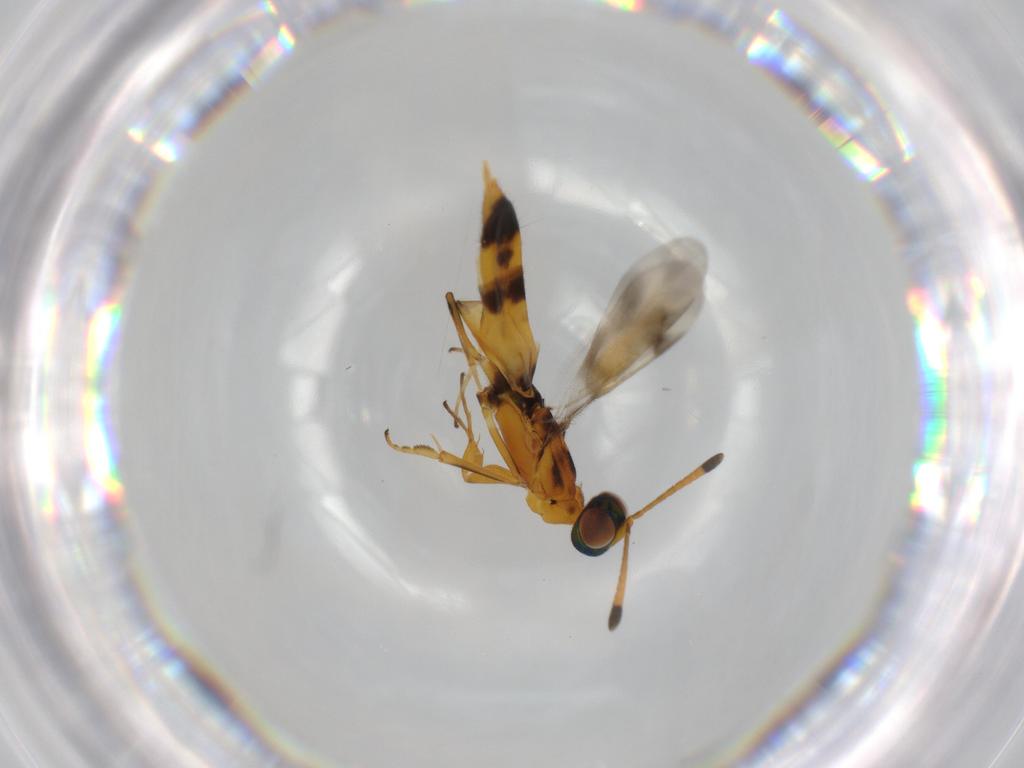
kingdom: Animalia
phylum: Arthropoda
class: Insecta
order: Hymenoptera
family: Eupelmidae
